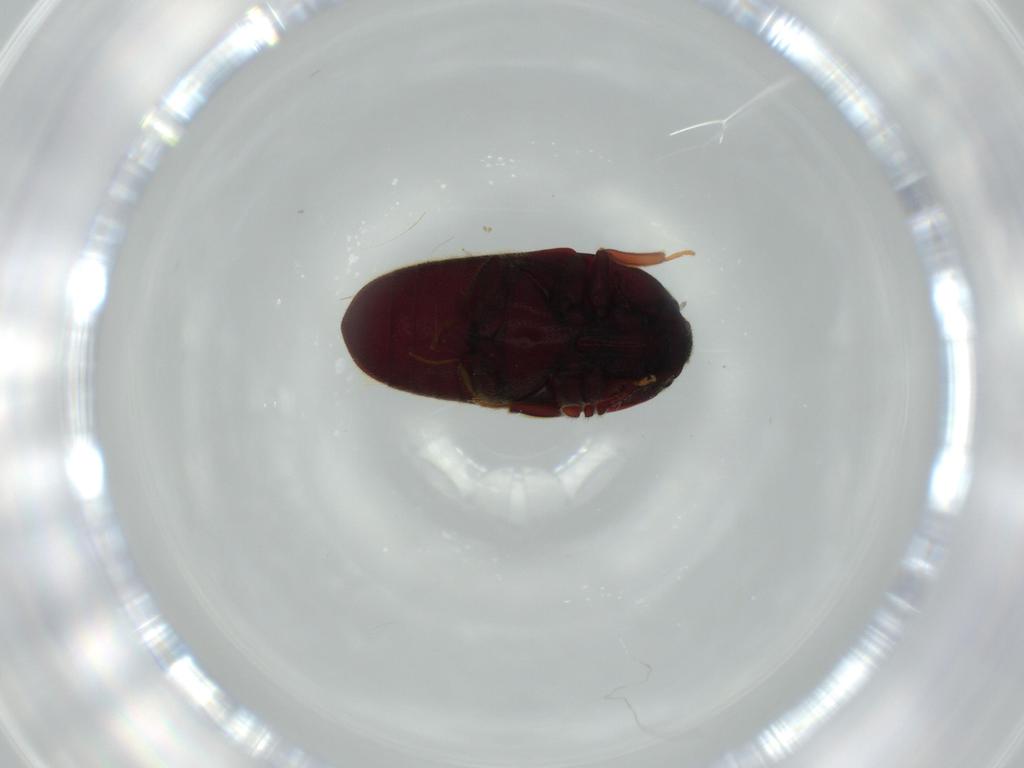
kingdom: Animalia
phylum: Arthropoda
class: Insecta
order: Coleoptera
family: Throscidae
